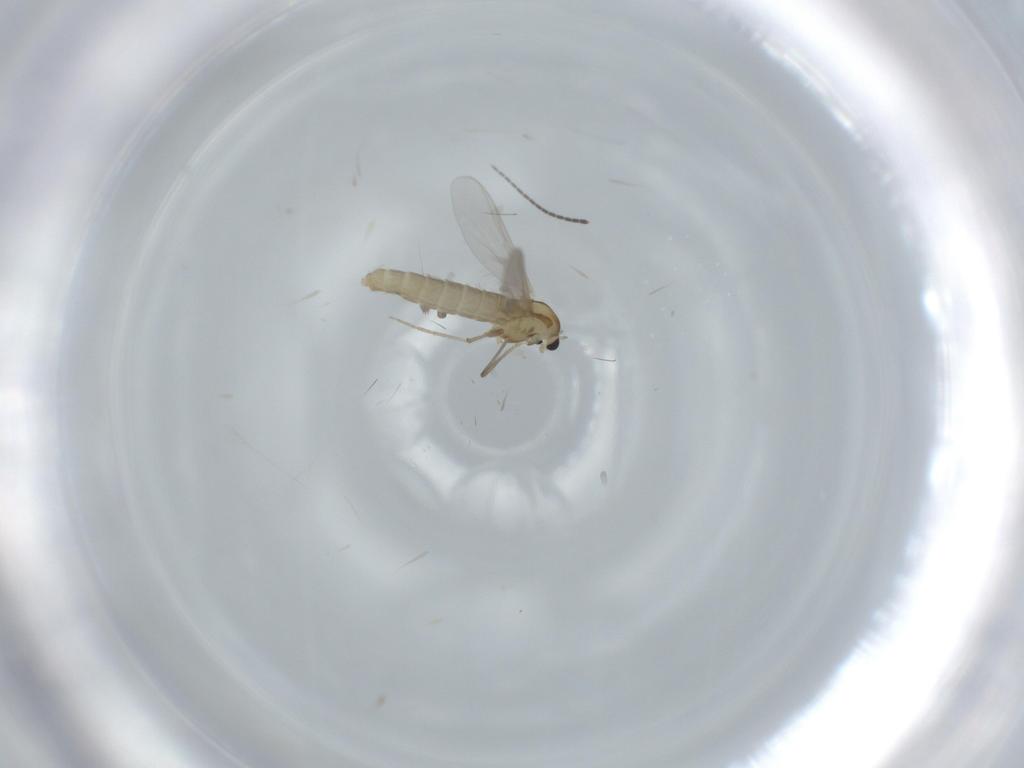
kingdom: Animalia
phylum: Arthropoda
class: Insecta
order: Diptera
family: Chironomidae
